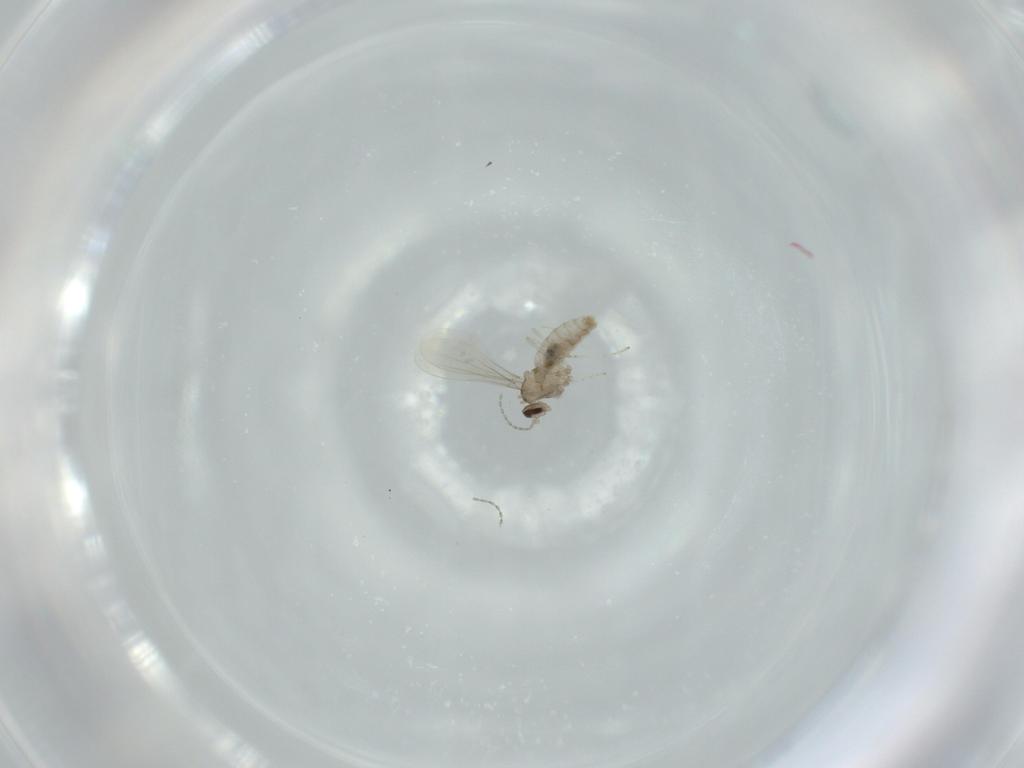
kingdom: Animalia
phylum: Arthropoda
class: Insecta
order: Diptera
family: Cecidomyiidae
